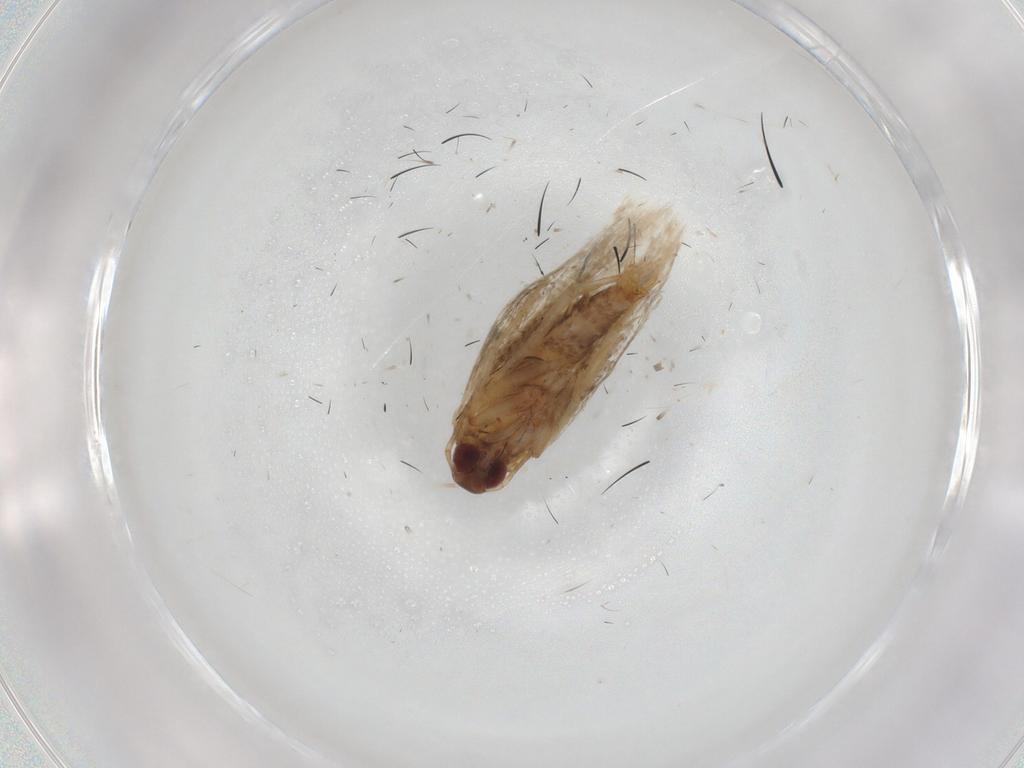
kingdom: Animalia
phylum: Arthropoda
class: Insecta
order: Lepidoptera
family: Gelechiidae
